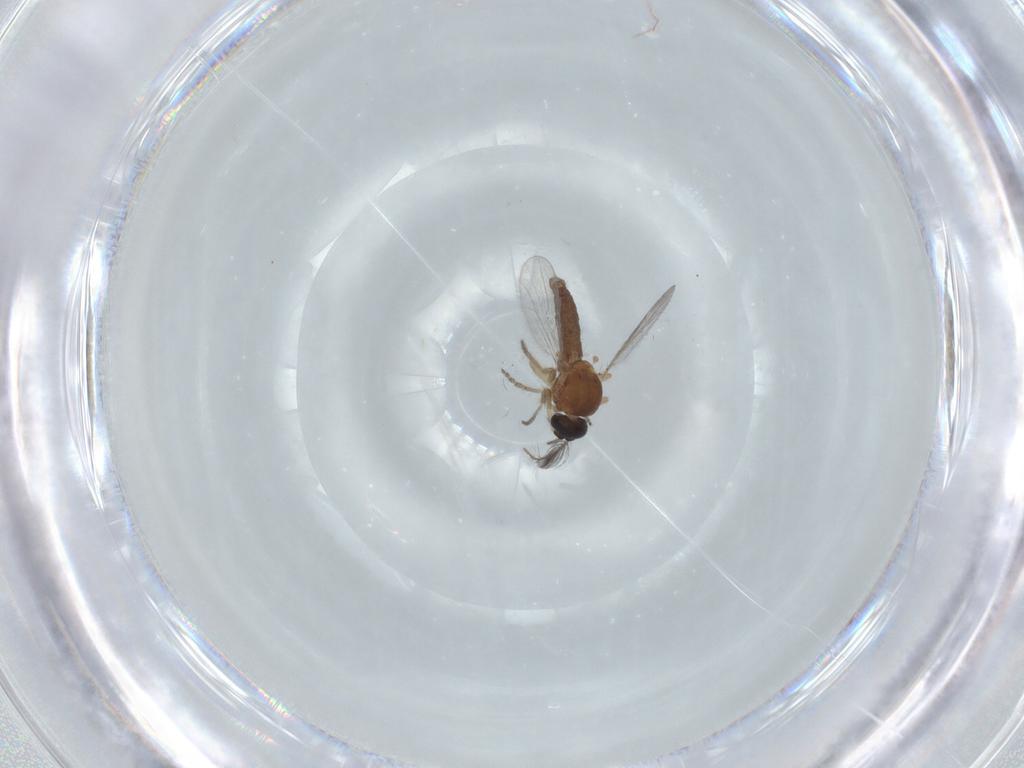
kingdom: Animalia
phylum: Arthropoda
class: Insecta
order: Diptera
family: Ceratopogonidae
